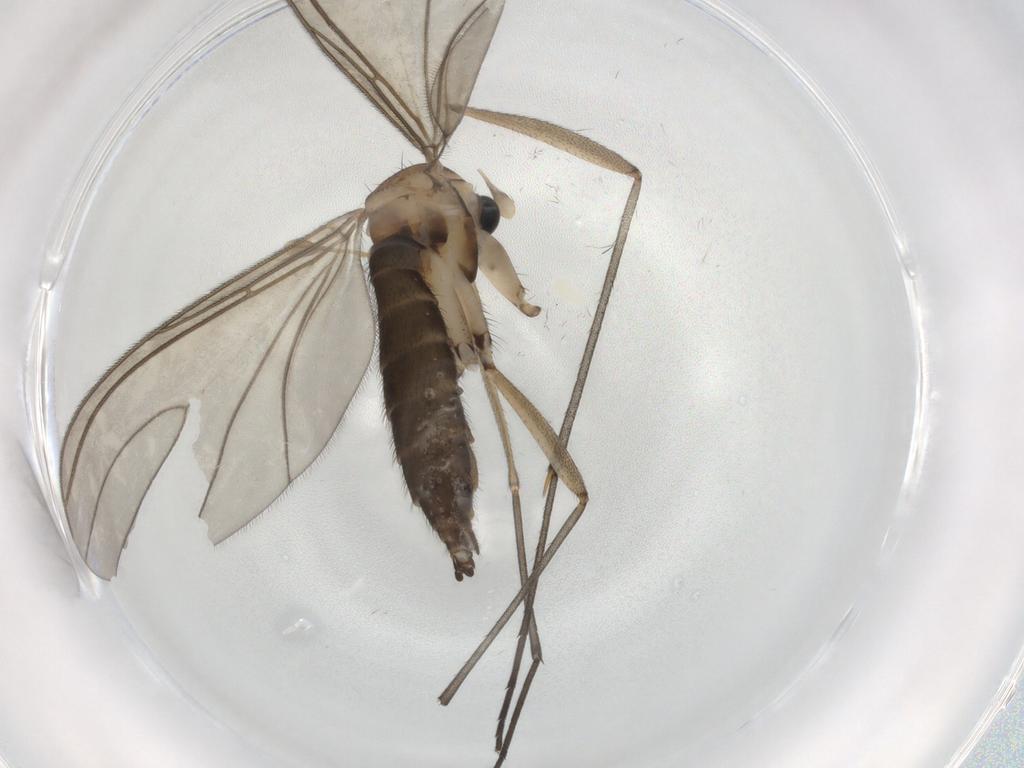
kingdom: Animalia
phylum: Arthropoda
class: Insecta
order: Diptera
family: Sciaridae
